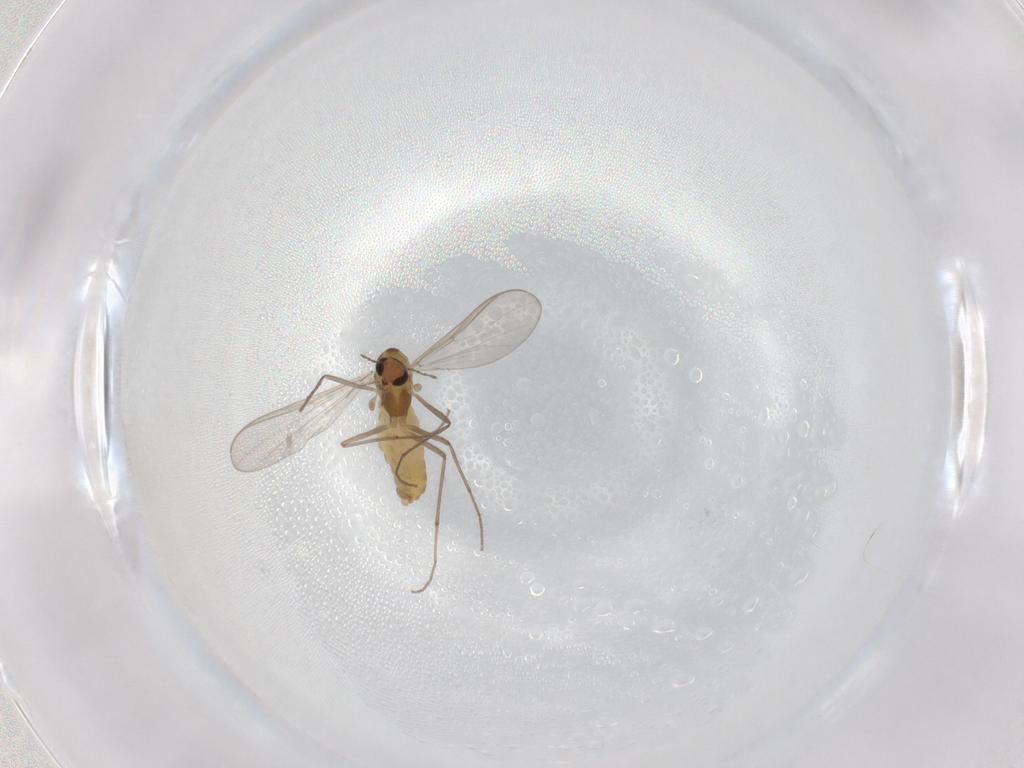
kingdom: Animalia
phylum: Arthropoda
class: Insecta
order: Diptera
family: Chironomidae
